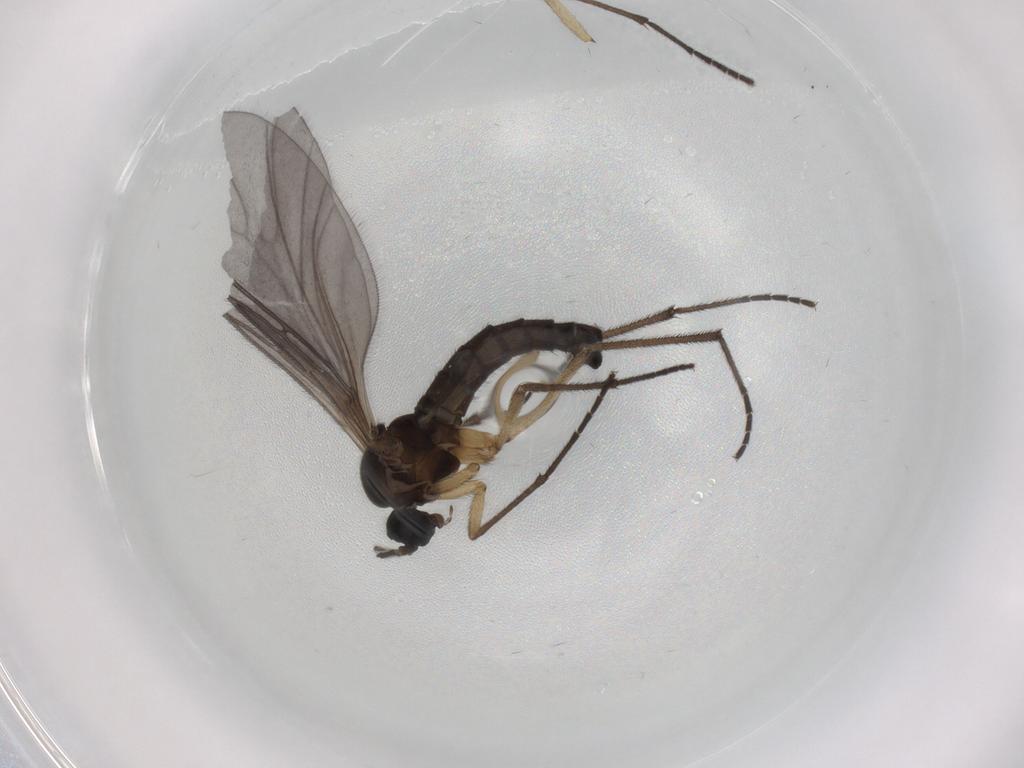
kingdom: Animalia
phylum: Arthropoda
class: Insecta
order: Diptera
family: Sciaridae
